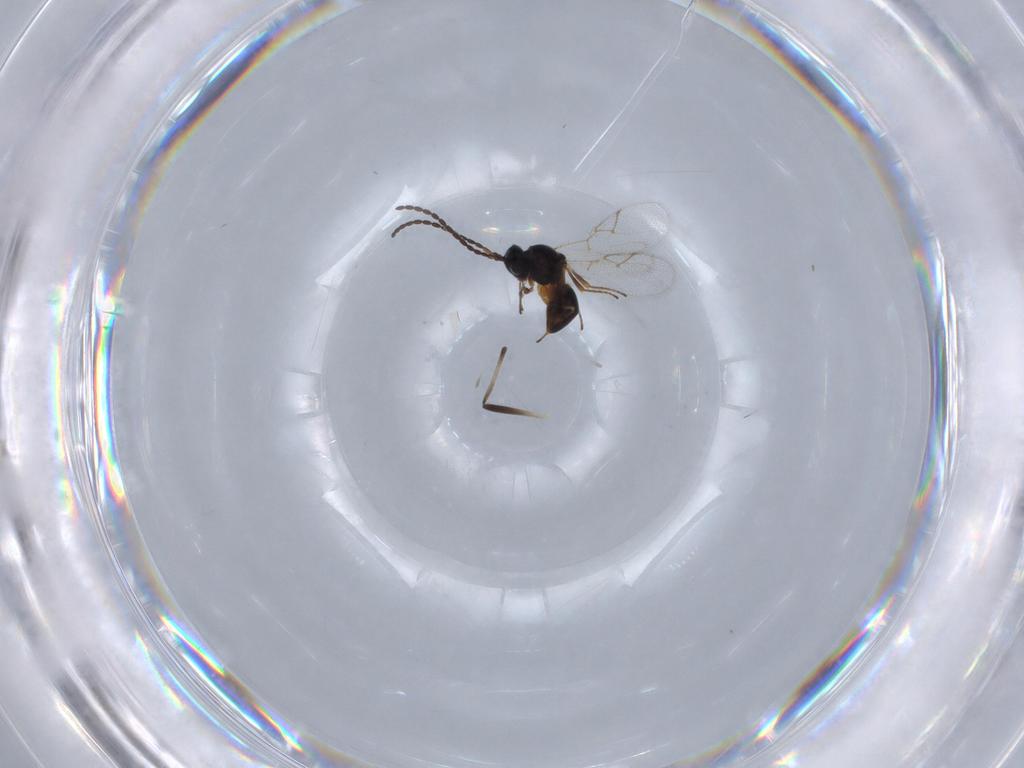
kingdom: Animalia
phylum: Arthropoda
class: Insecta
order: Hymenoptera
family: Figitidae
